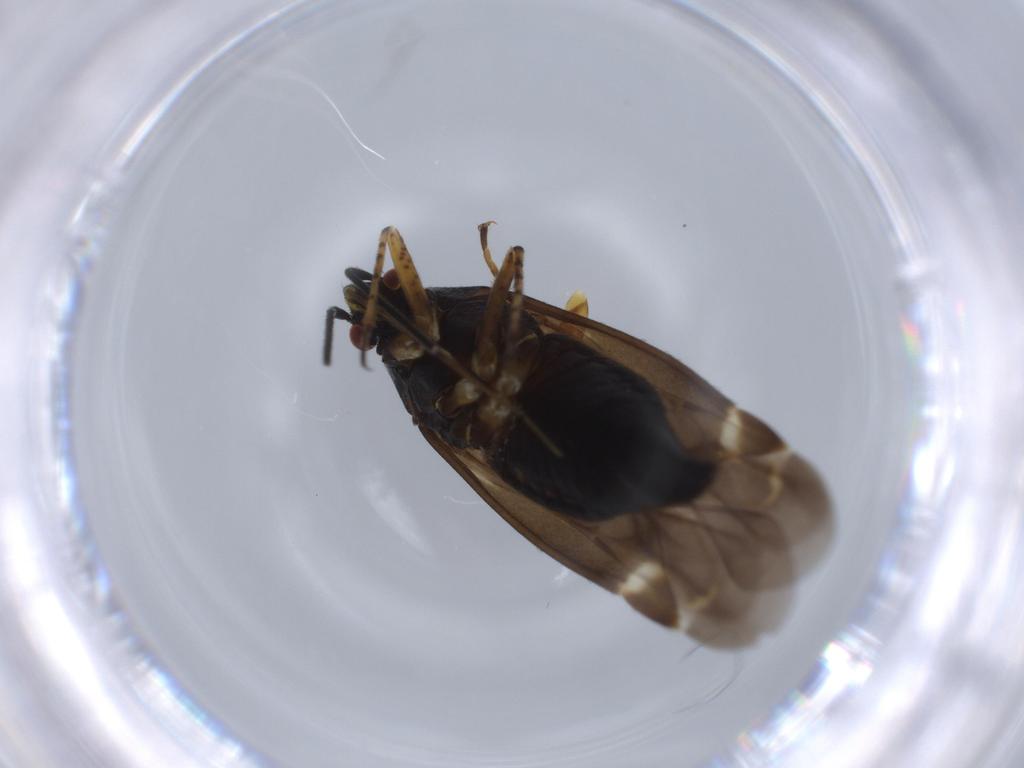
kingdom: Animalia
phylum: Arthropoda
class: Insecta
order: Hemiptera
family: Miridae
